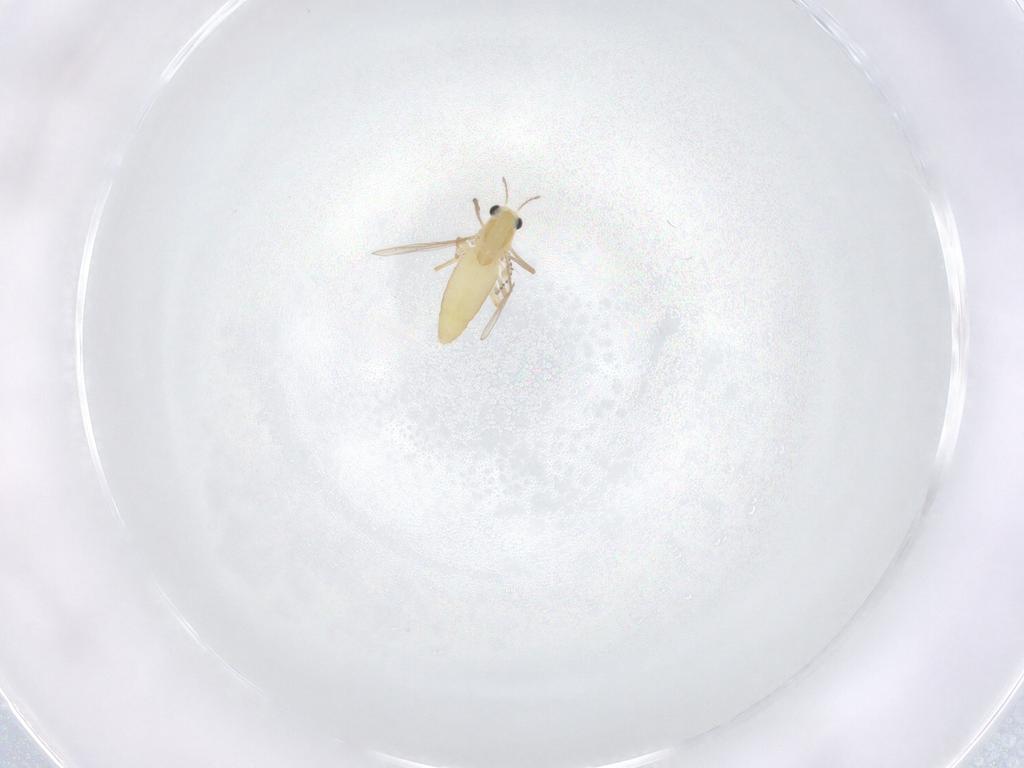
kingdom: Animalia
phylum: Arthropoda
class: Insecta
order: Diptera
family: Chironomidae
